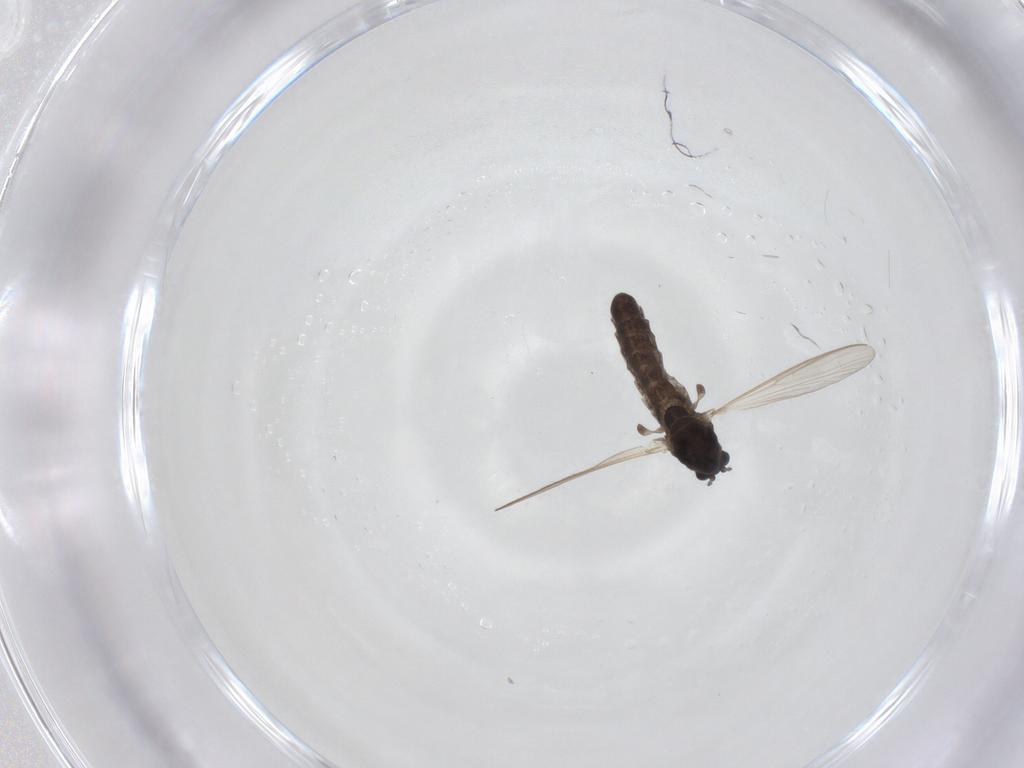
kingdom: Animalia
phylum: Arthropoda
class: Insecta
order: Diptera
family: Chironomidae
